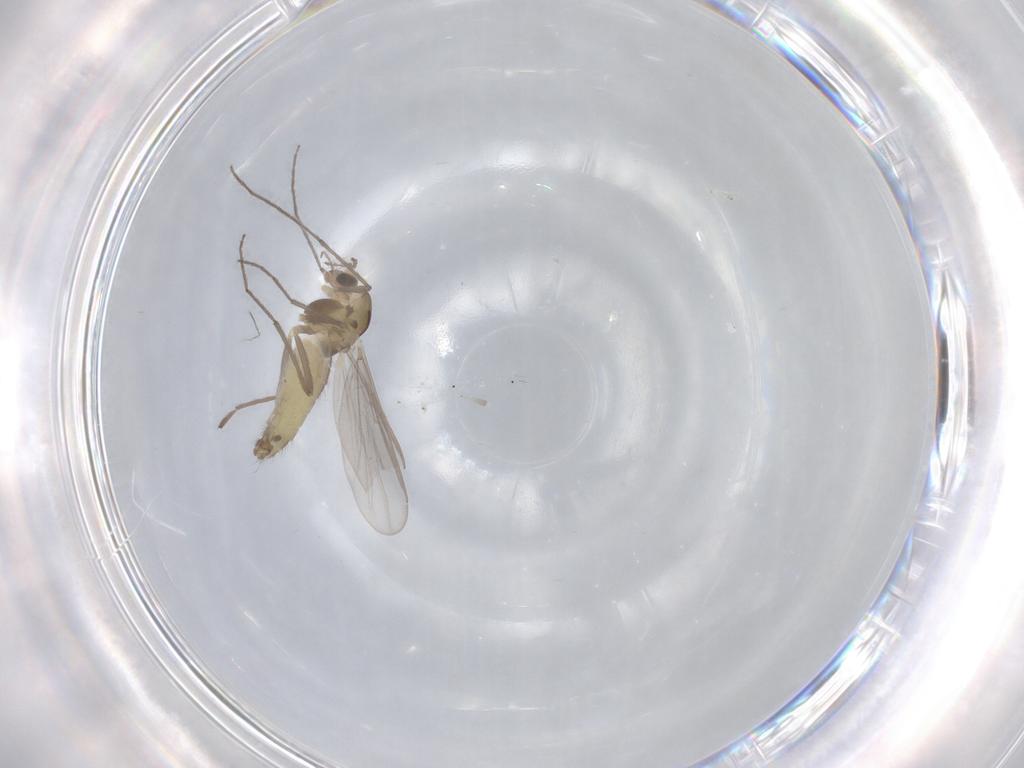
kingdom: Animalia
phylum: Arthropoda
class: Insecta
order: Diptera
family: Chironomidae
